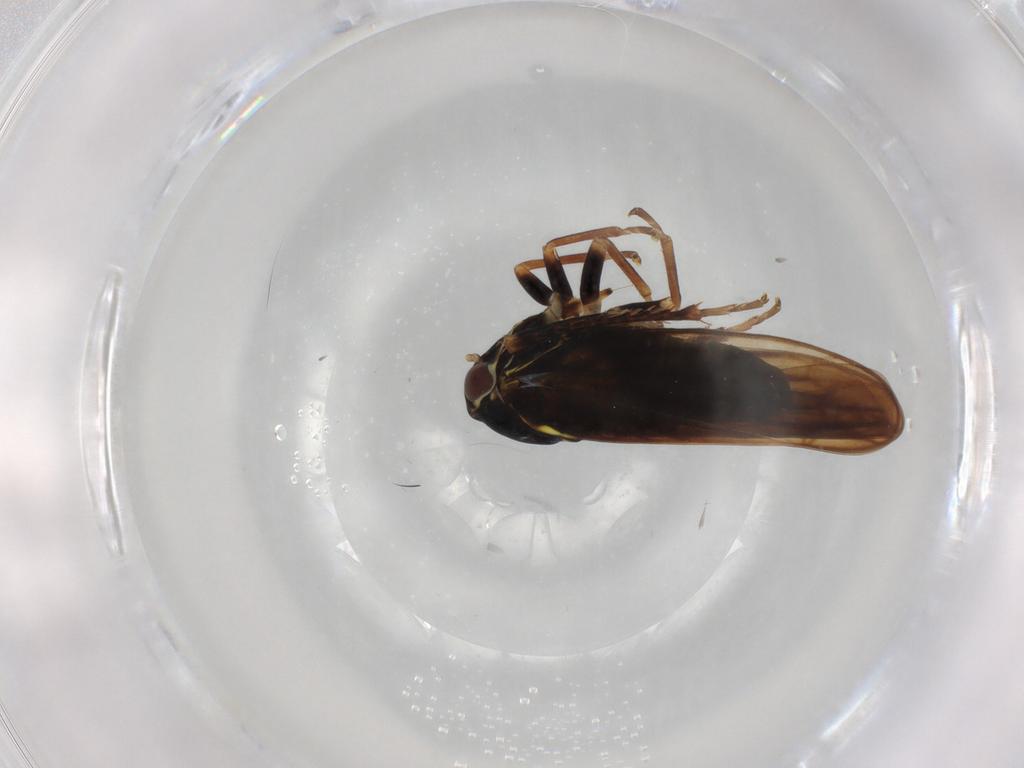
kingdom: Animalia
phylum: Arthropoda
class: Insecta
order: Hemiptera
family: Cicadellidae
